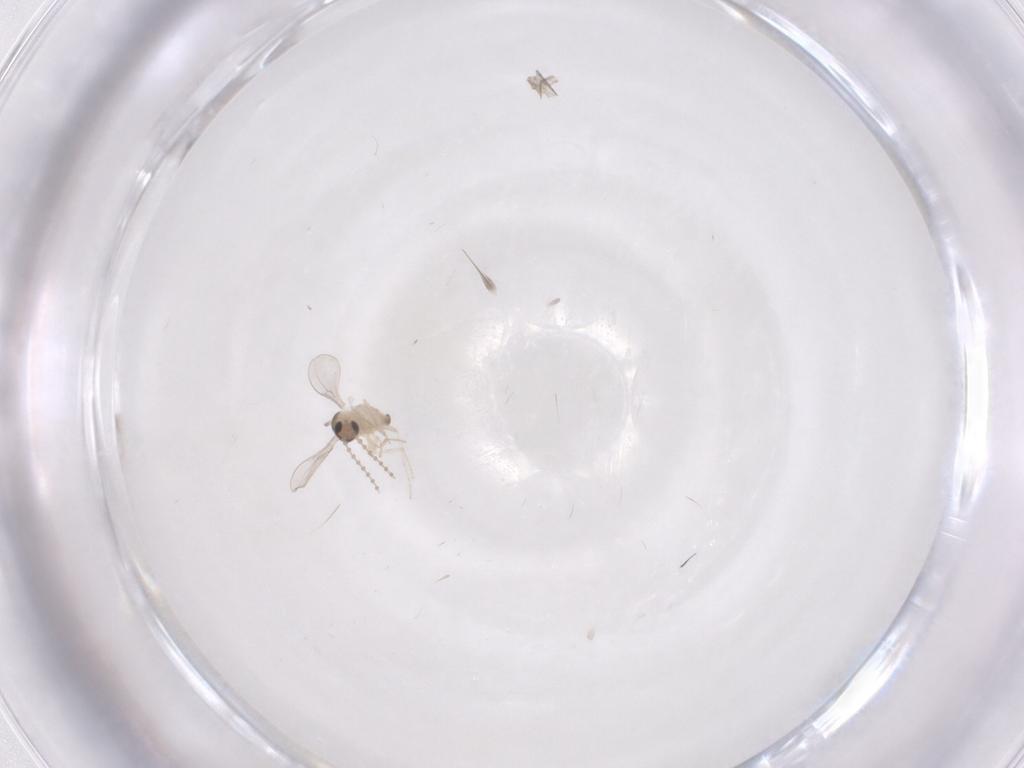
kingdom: Animalia
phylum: Arthropoda
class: Insecta
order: Diptera
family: Cecidomyiidae
